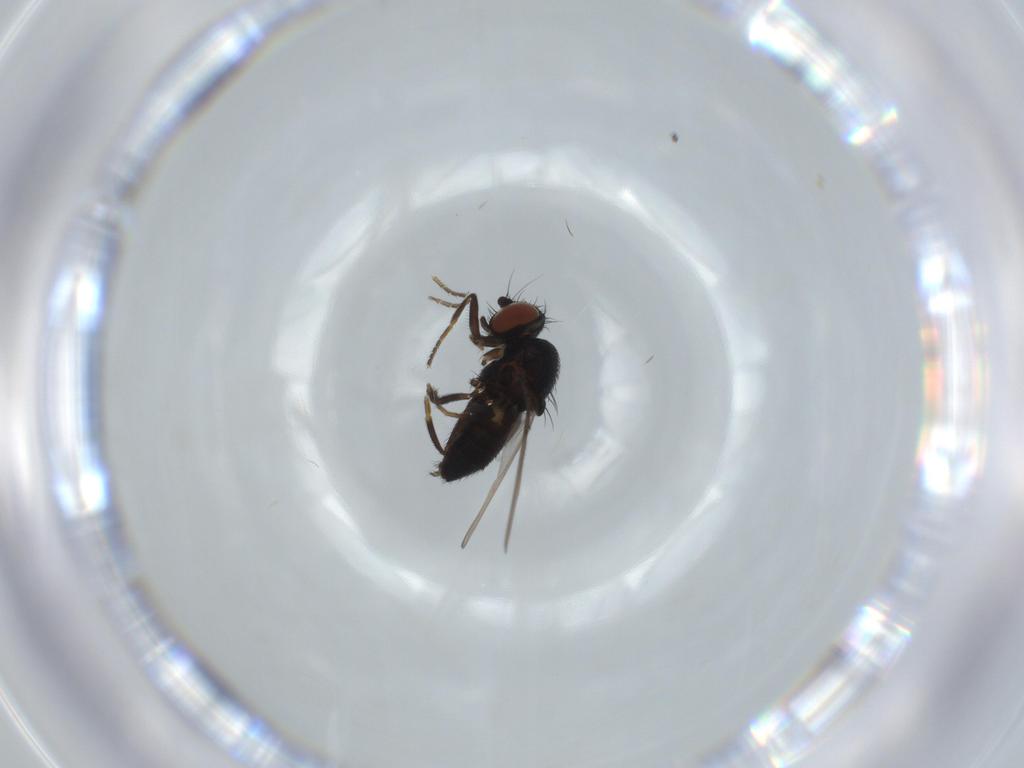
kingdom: Animalia
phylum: Arthropoda
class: Insecta
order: Diptera
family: Milichiidae
